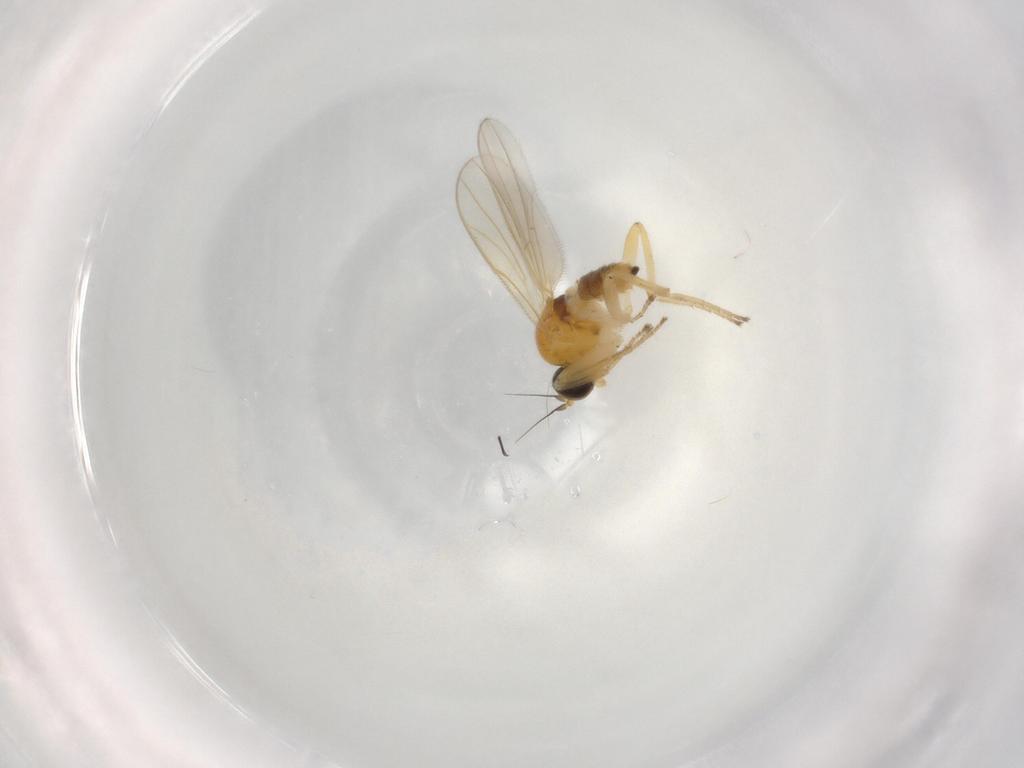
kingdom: Animalia
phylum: Arthropoda
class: Insecta
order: Diptera
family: Hybotidae
